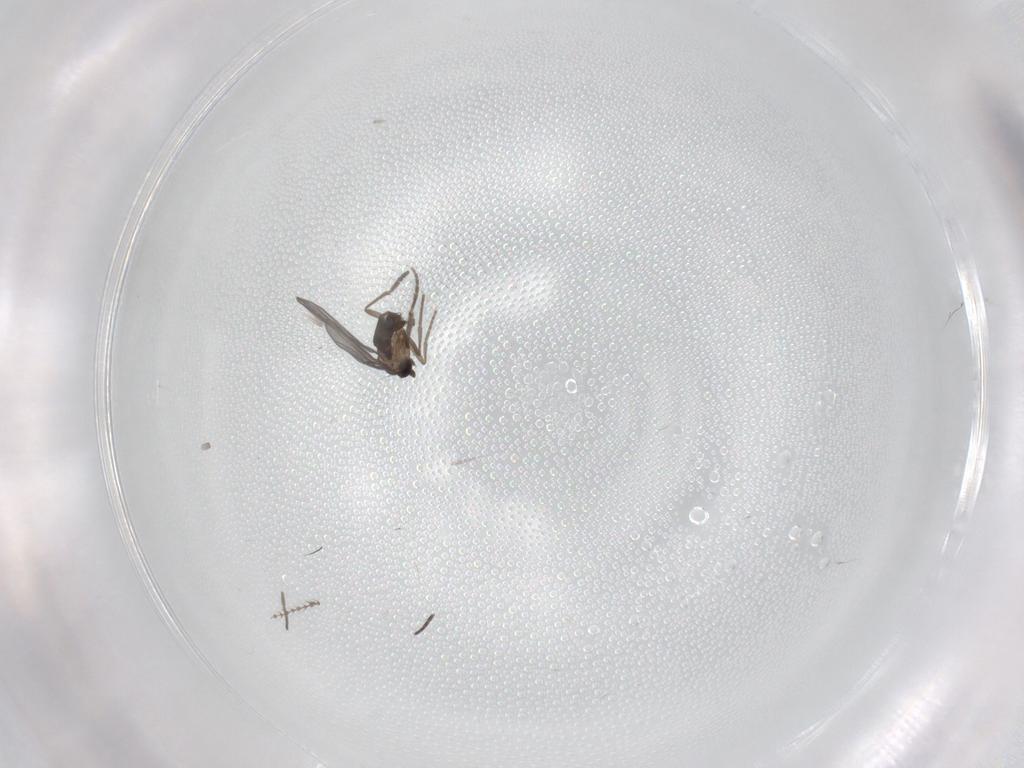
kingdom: Animalia
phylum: Arthropoda
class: Insecta
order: Diptera
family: Phoridae
